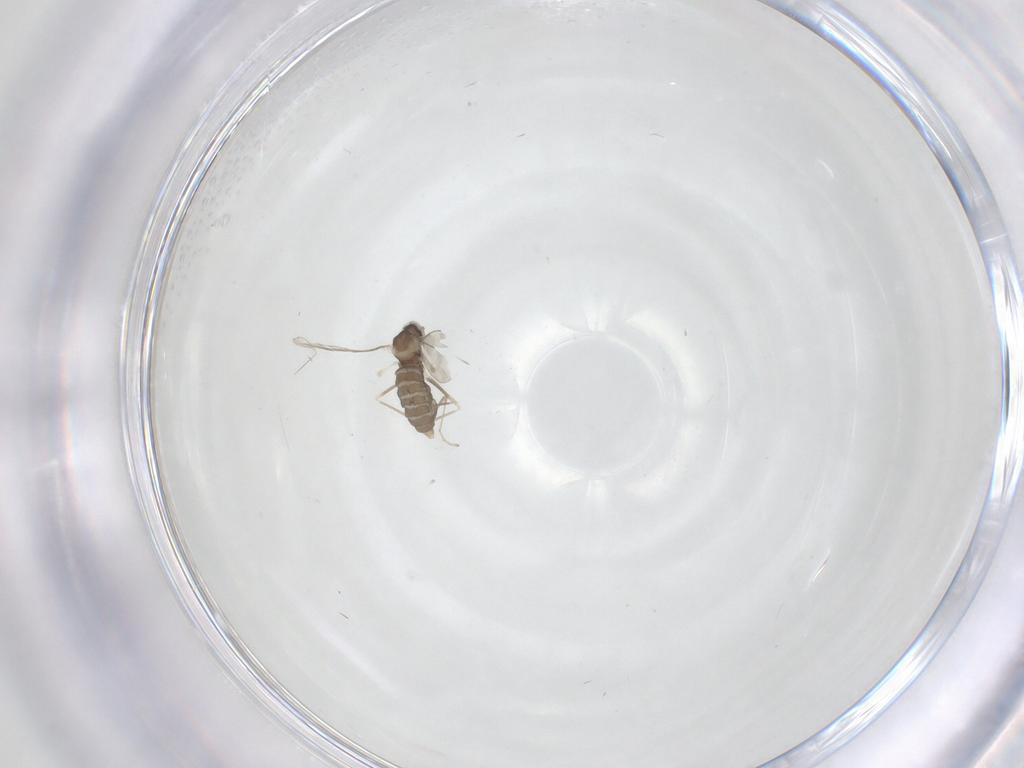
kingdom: Animalia
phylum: Arthropoda
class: Insecta
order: Diptera
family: Cecidomyiidae
